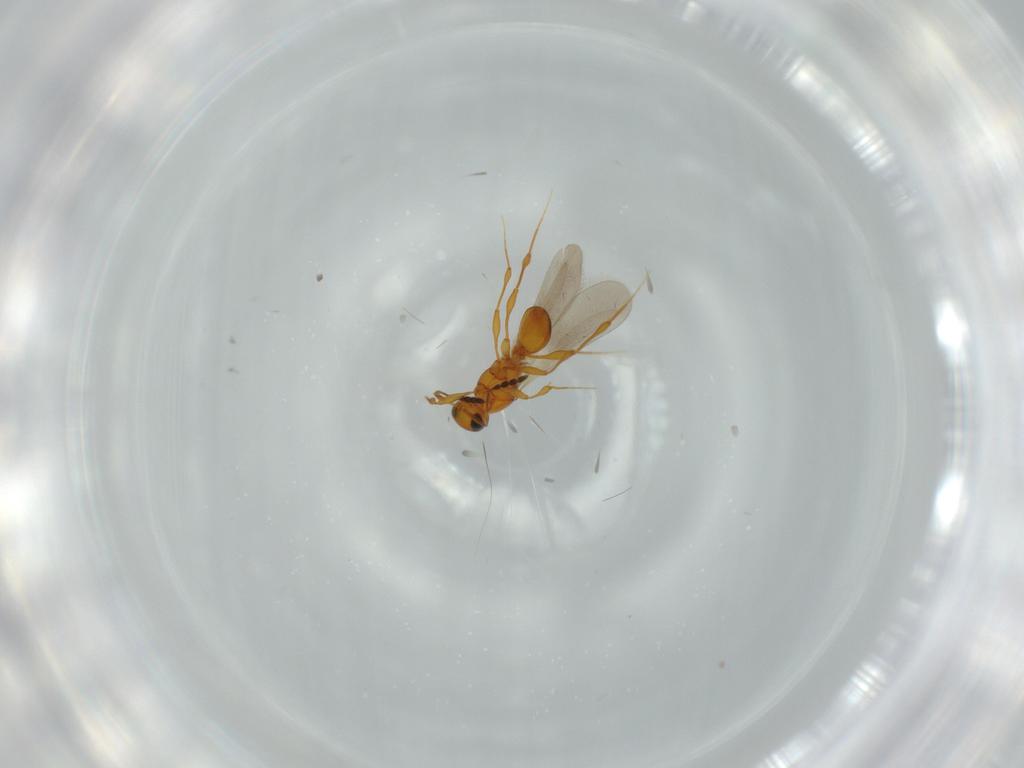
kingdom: Animalia
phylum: Arthropoda
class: Insecta
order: Hymenoptera
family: Platygastridae
